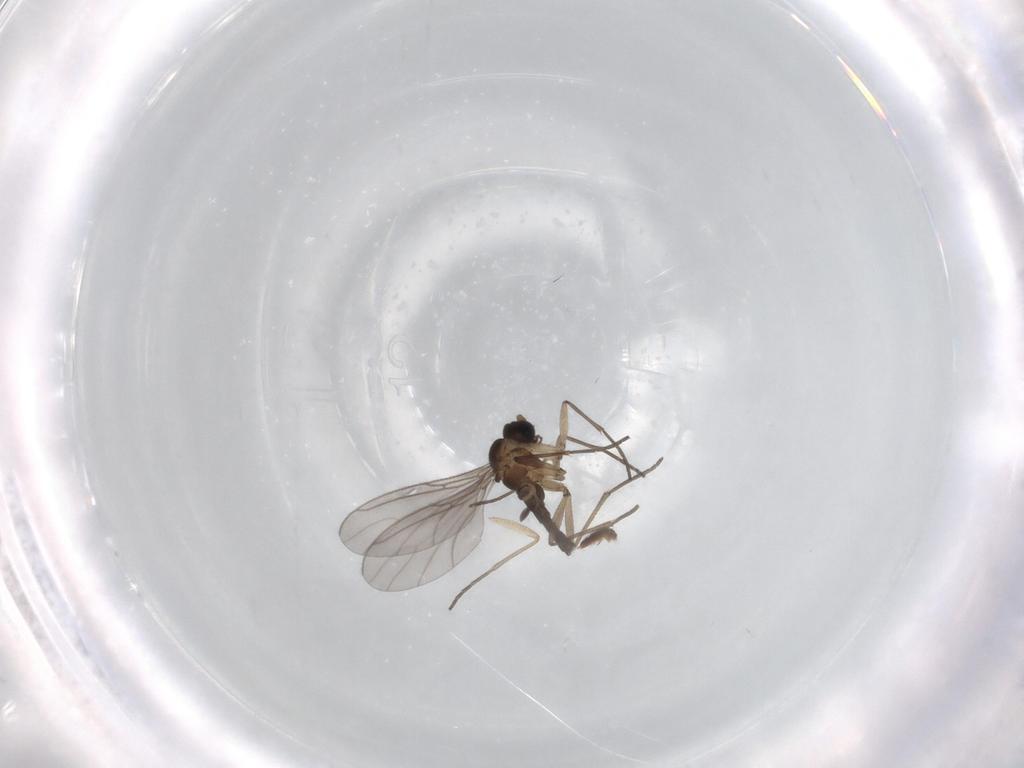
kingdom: Animalia
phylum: Arthropoda
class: Insecta
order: Diptera
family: Sciaridae
